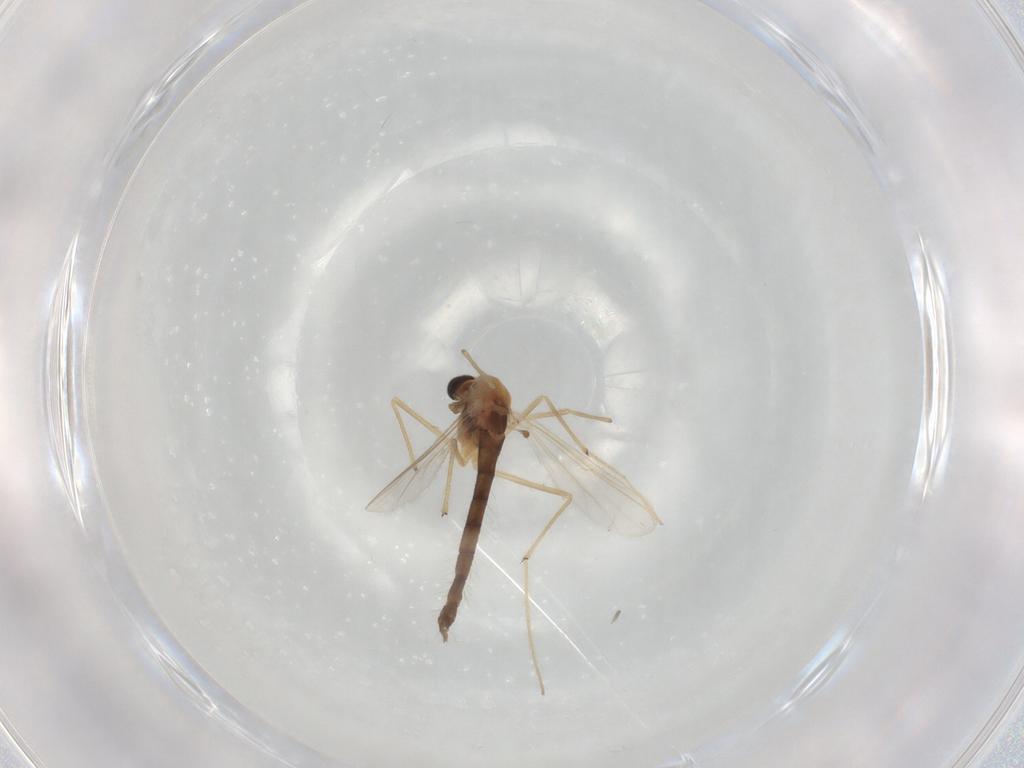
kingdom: Animalia
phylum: Arthropoda
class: Insecta
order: Diptera
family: Chironomidae
